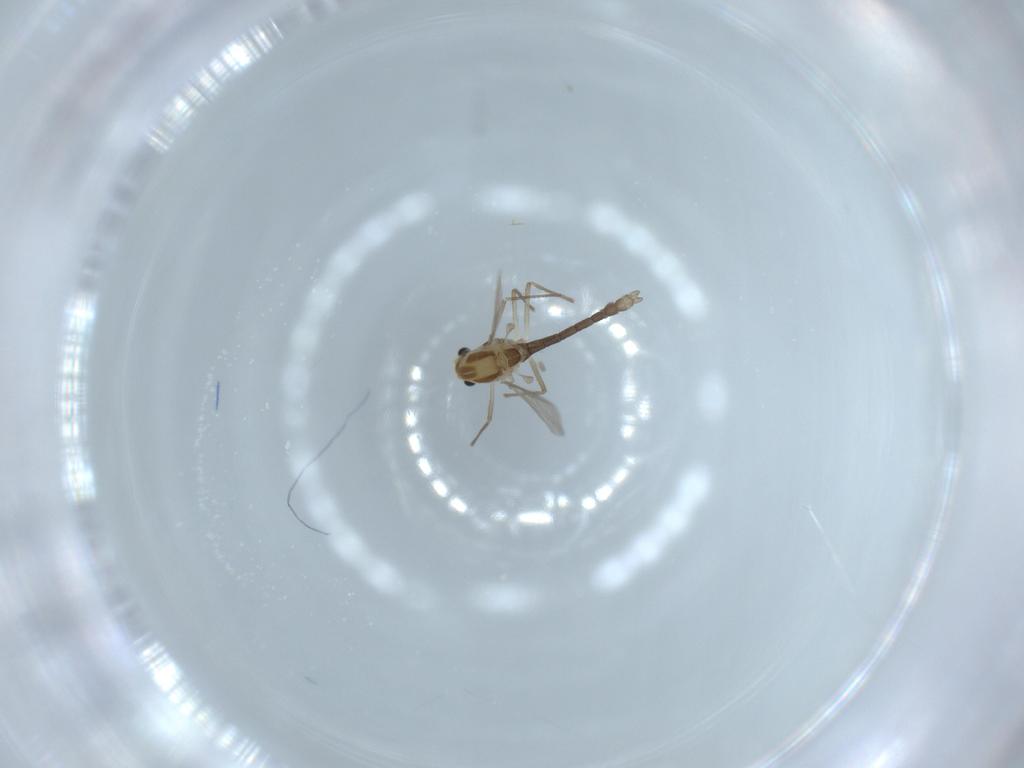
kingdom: Animalia
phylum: Arthropoda
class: Insecta
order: Diptera
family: Chironomidae
